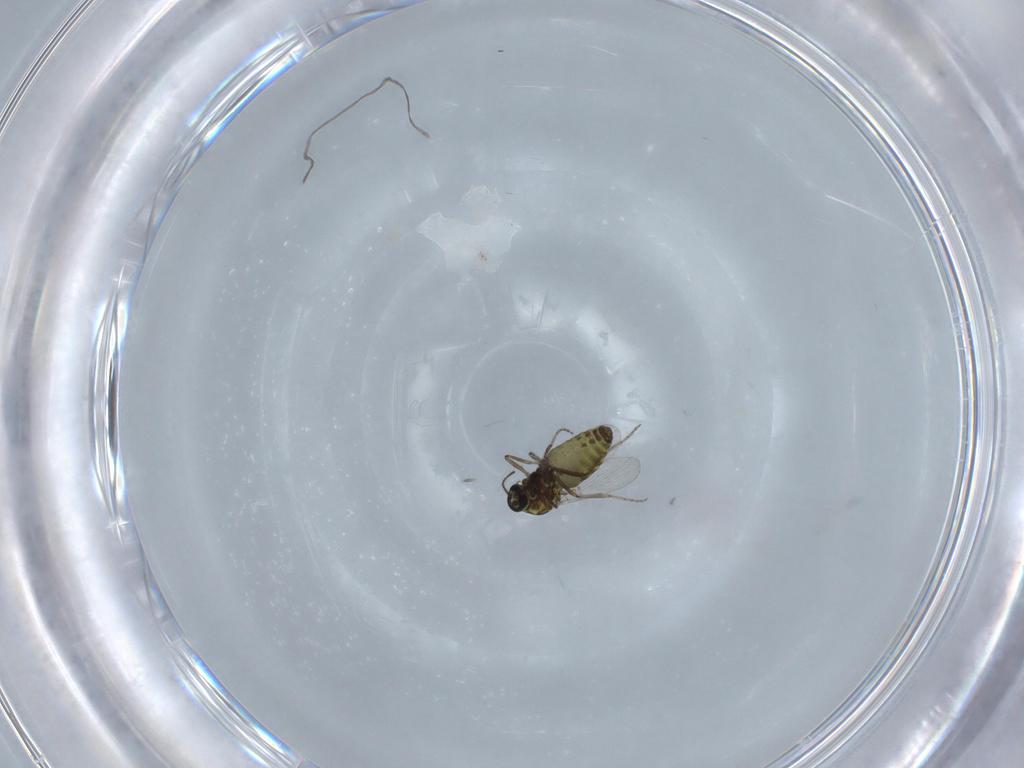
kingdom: Animalia
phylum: Arthropoda
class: Insecta
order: Diptera
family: Ceratopogonidae
